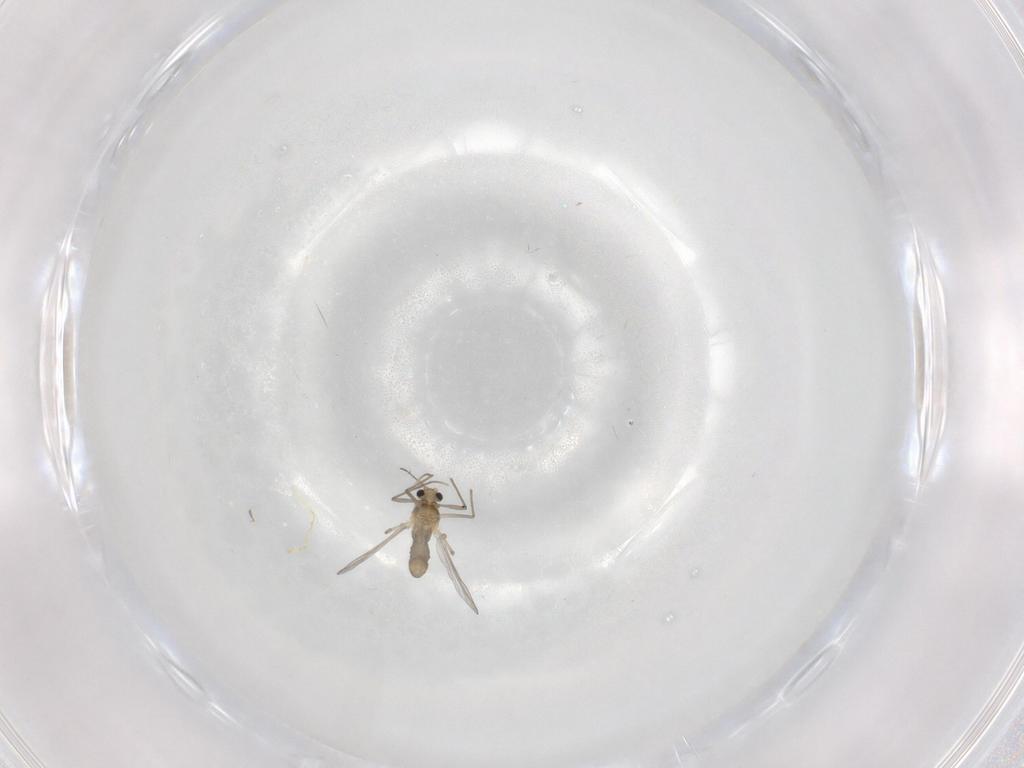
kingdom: Animalia
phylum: Arthropoda
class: Insecta
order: Diptera
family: Chironomidae
